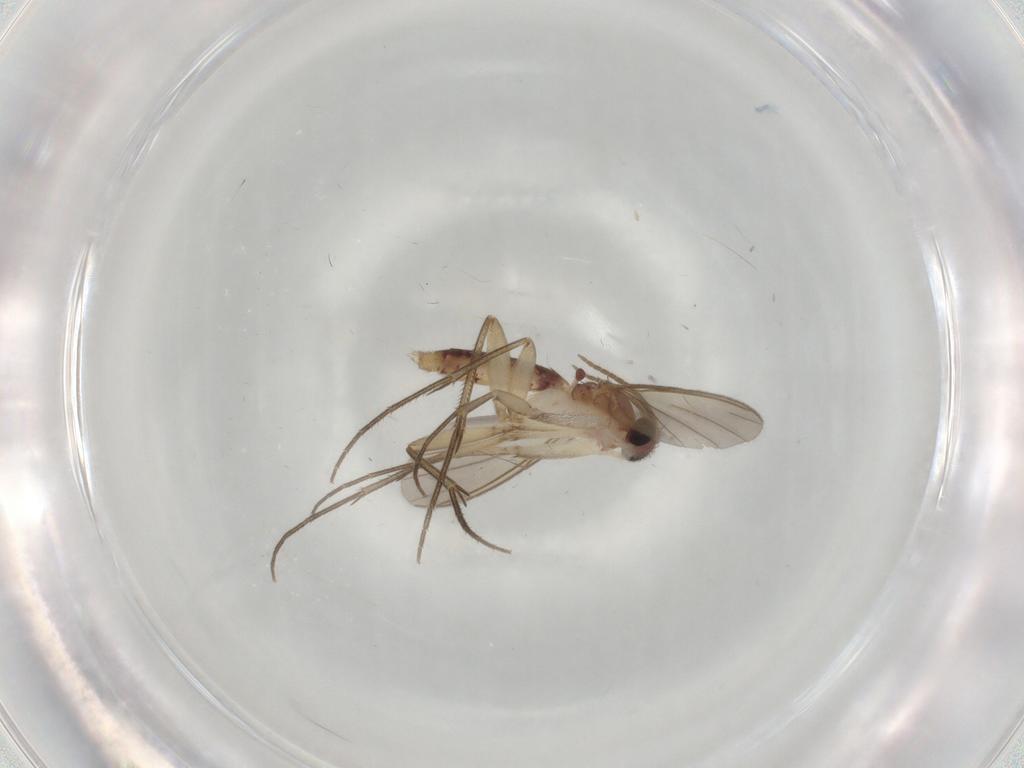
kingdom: Animalia
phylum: Arthropoda
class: Insecta
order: Diptera
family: Mycetophilidae
